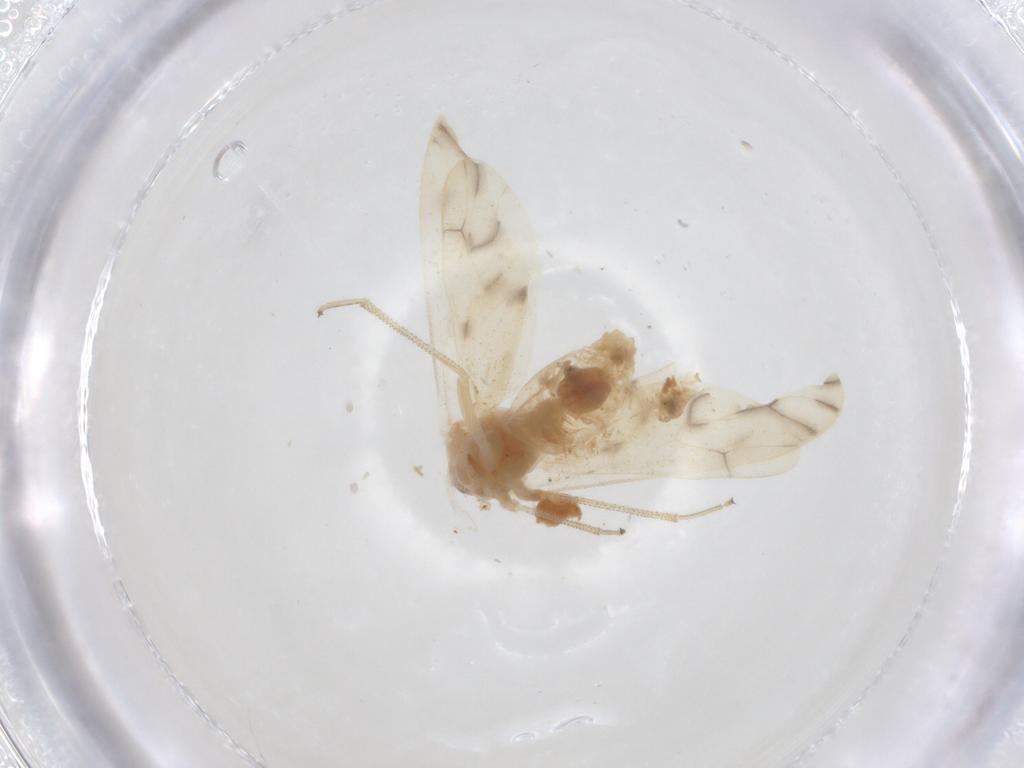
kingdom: Animalia
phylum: Arthropoda
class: Insecta
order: Psocodea
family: Caeciliusidae
